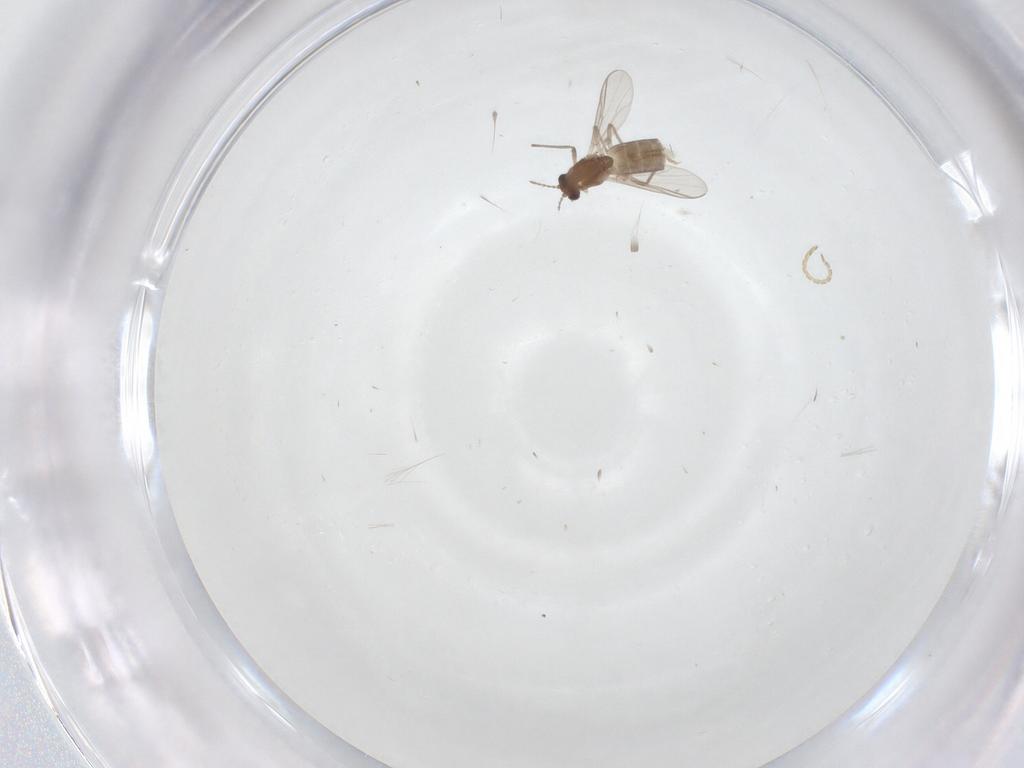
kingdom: Animalia
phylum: Arthropoda
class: Insecta
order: Diptera
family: Chironomidae
